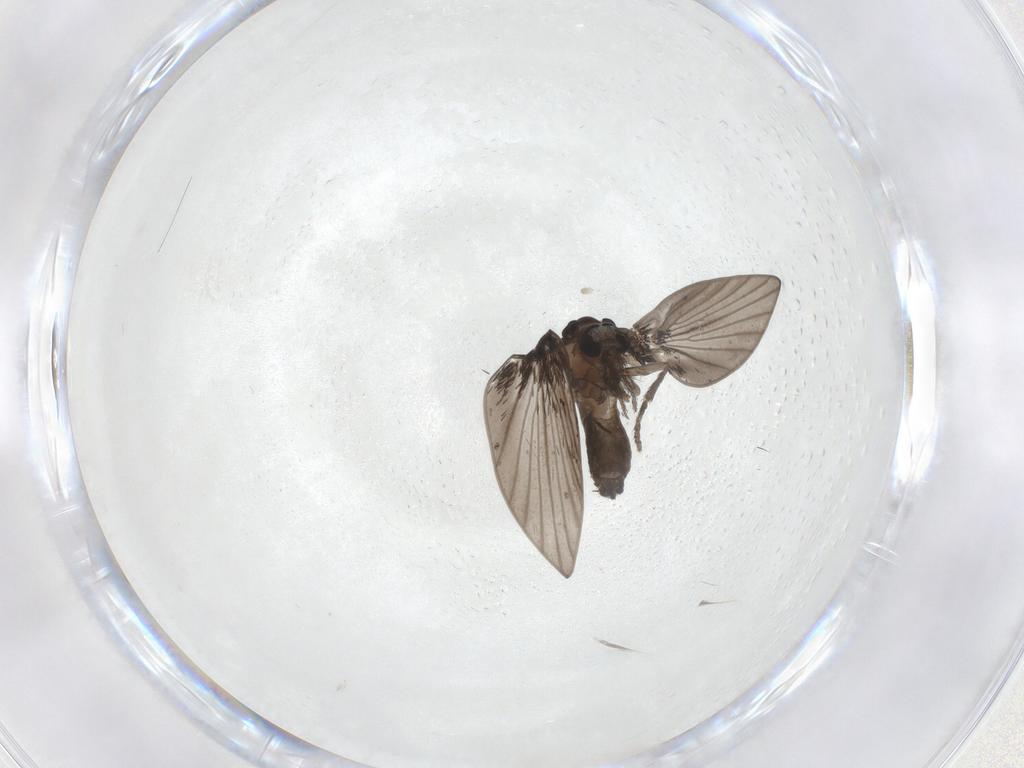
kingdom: Animalia
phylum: Arthropoda
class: Insecta
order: Diptera
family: Psychodidae
